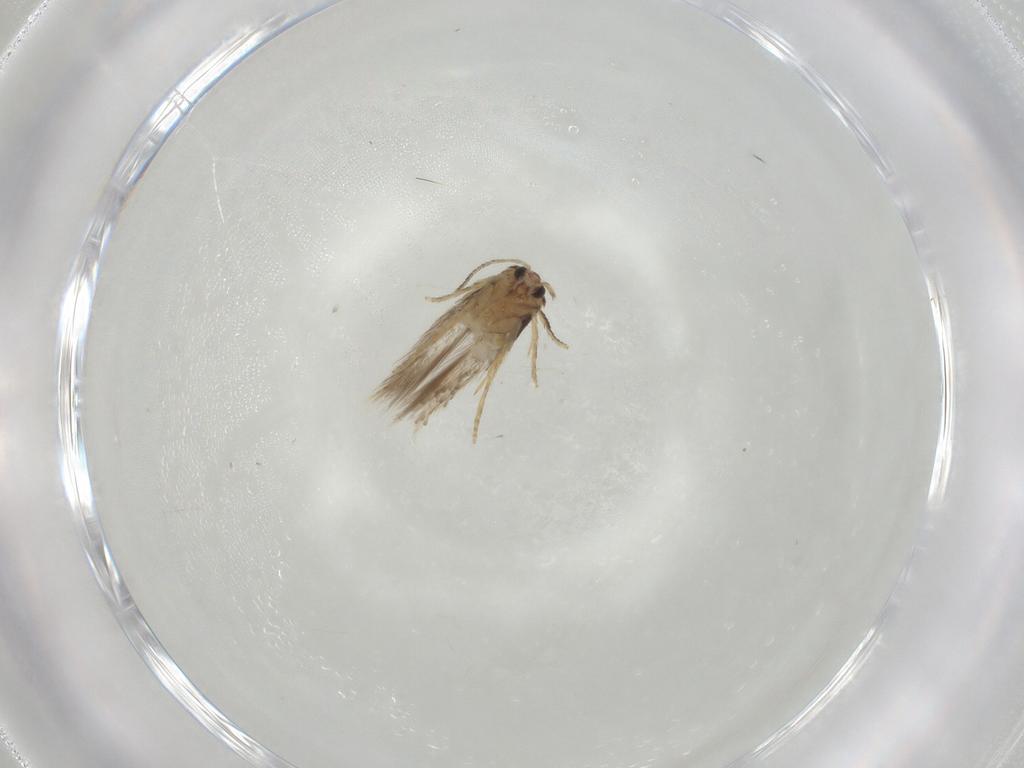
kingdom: Animalia
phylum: Arthropoda
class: Insecta
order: Lepidoptera
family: Nepticulidae
